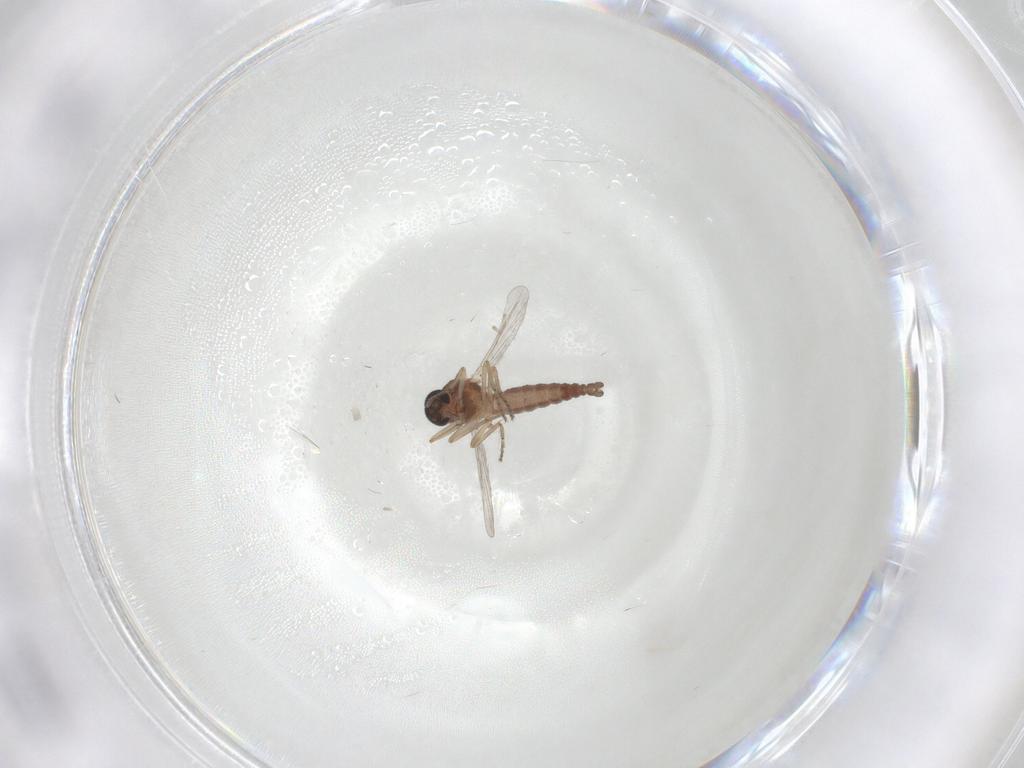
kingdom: Animalia
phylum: Arthropoda
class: Insecta
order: Diptera
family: Ceratopogonidae
